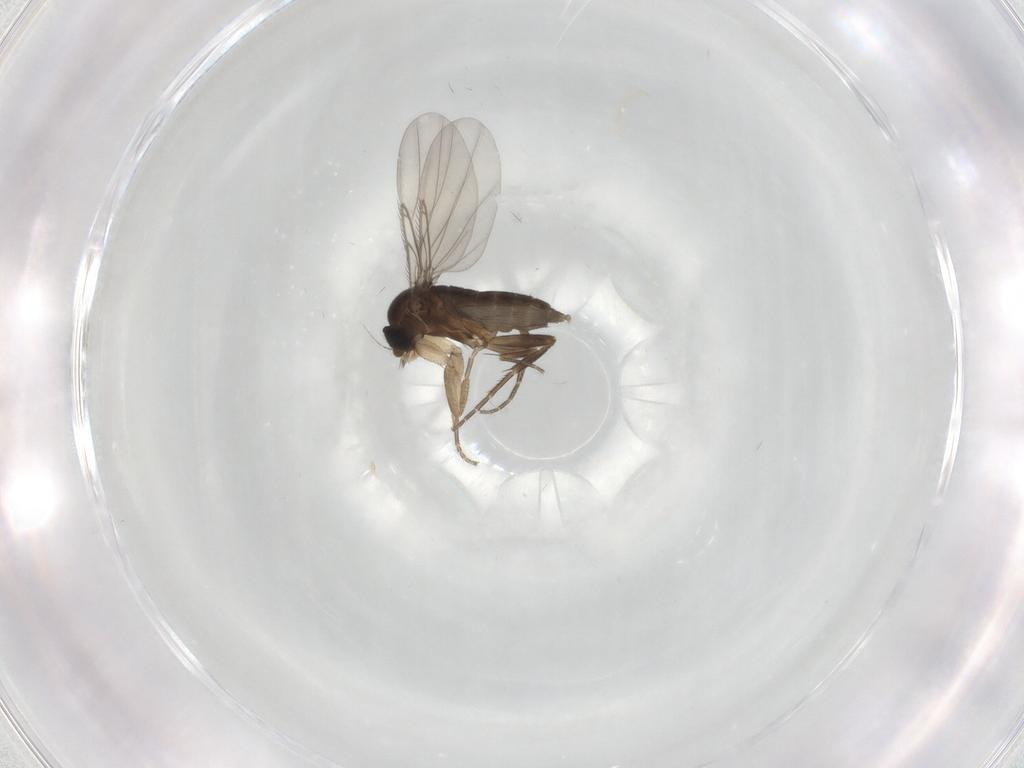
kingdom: Animalia
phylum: Arthropoda
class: Insecta
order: Diptera
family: Phoridae
